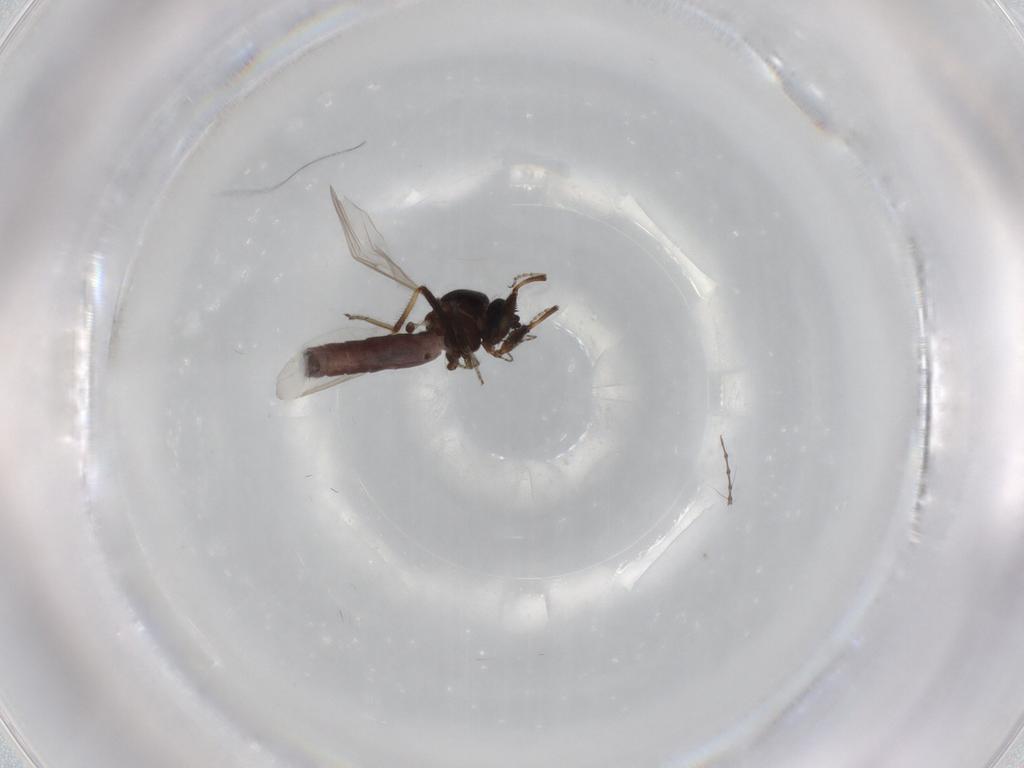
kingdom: Animalia
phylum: Arthropoda
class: Insecta
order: Diptera
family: Ceratopogonidae
